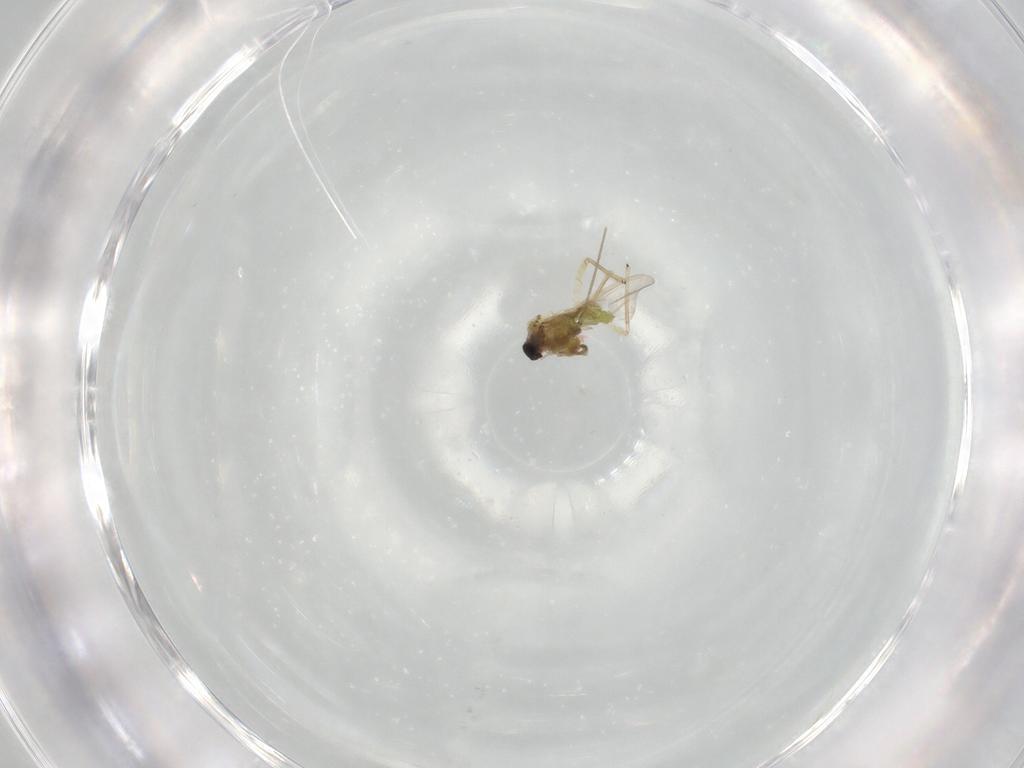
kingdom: Animalia
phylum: Arthropoda
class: Insecta
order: Diptera
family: Chironomidae
